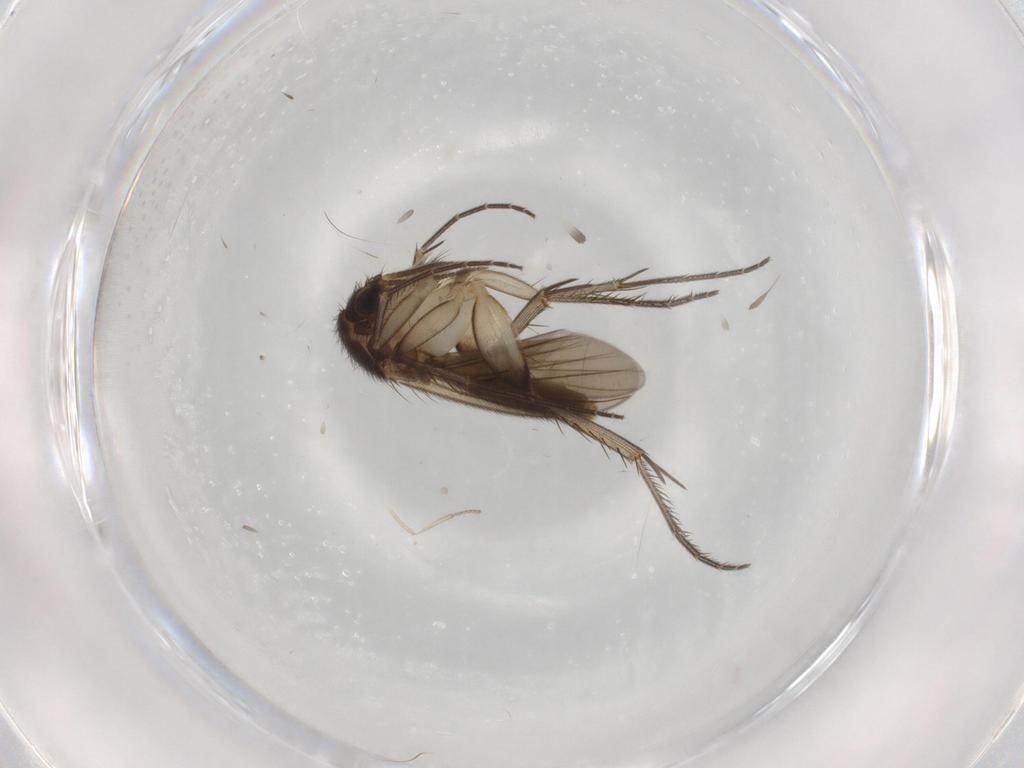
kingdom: Animalia
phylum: Arthropoda
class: Insecta
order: Diptera
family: Psychodidae
